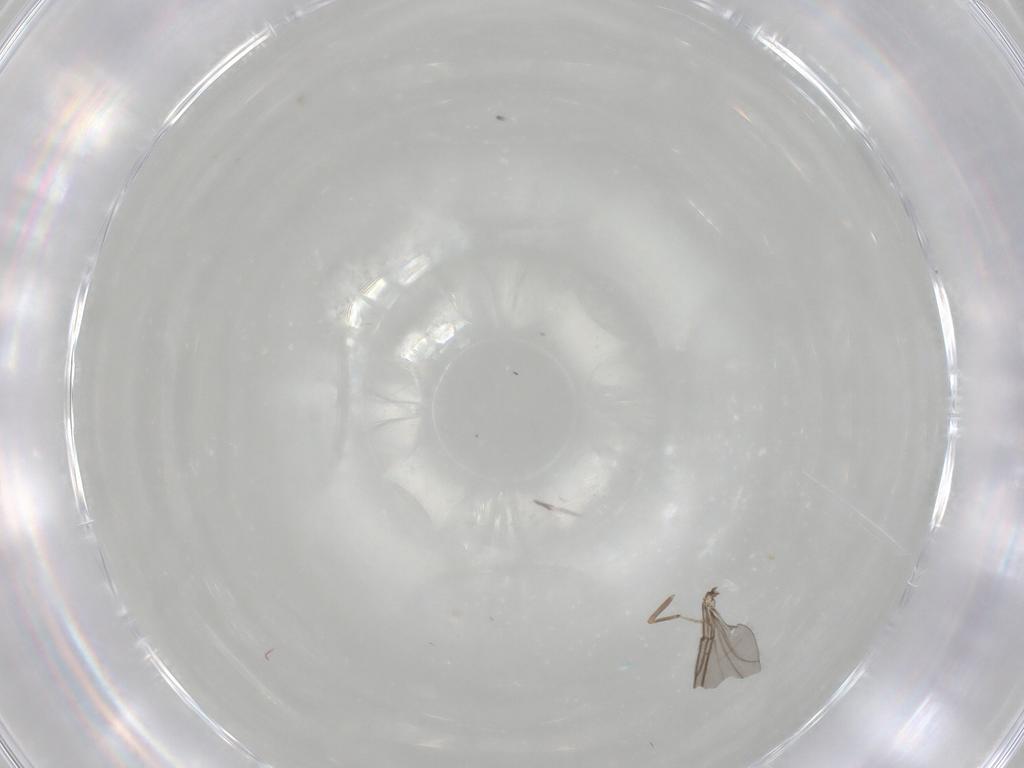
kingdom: Animalia
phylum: Arthropoda
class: Insecta
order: Diptera
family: Ceratopogonidae
